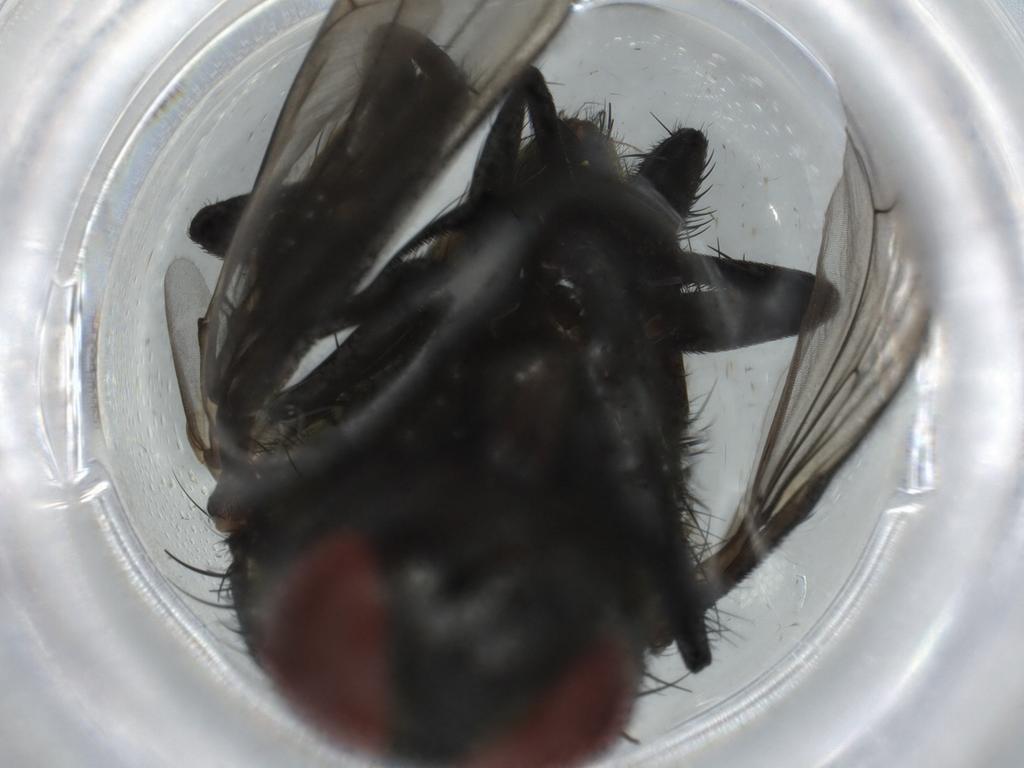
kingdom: Animalia
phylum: Arthropoda
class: Insecta
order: Diptera
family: Sarcophagidae
